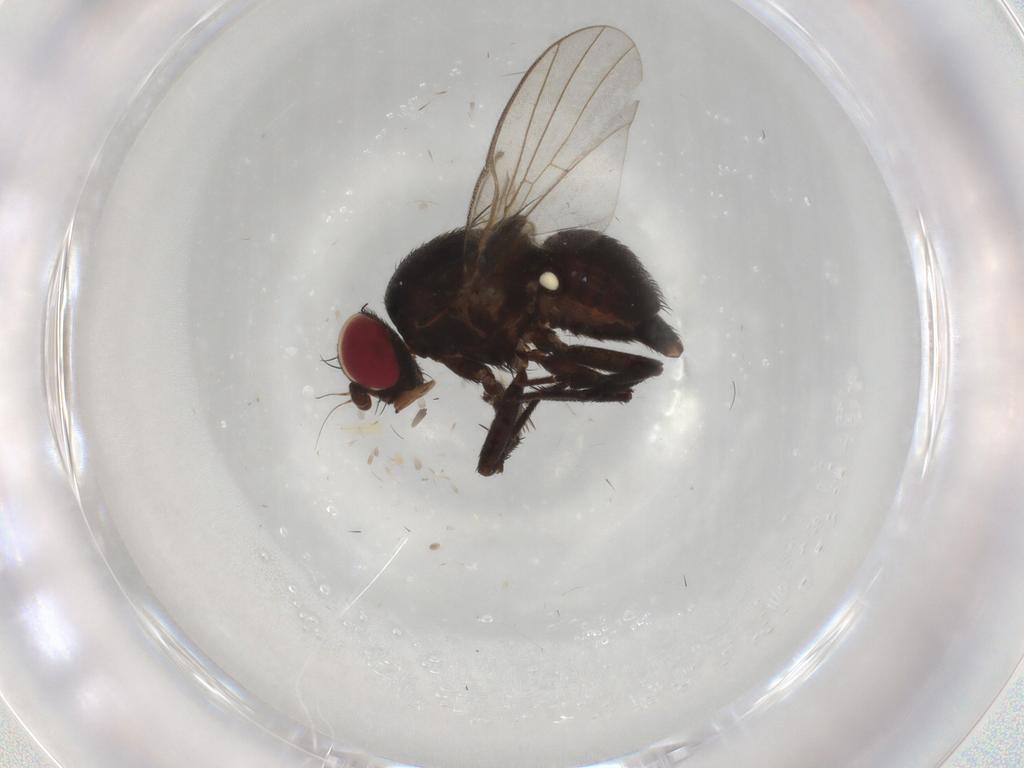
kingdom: Animalia
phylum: Arthropoda
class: Insecta
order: Diptera
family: Agromyzidae
